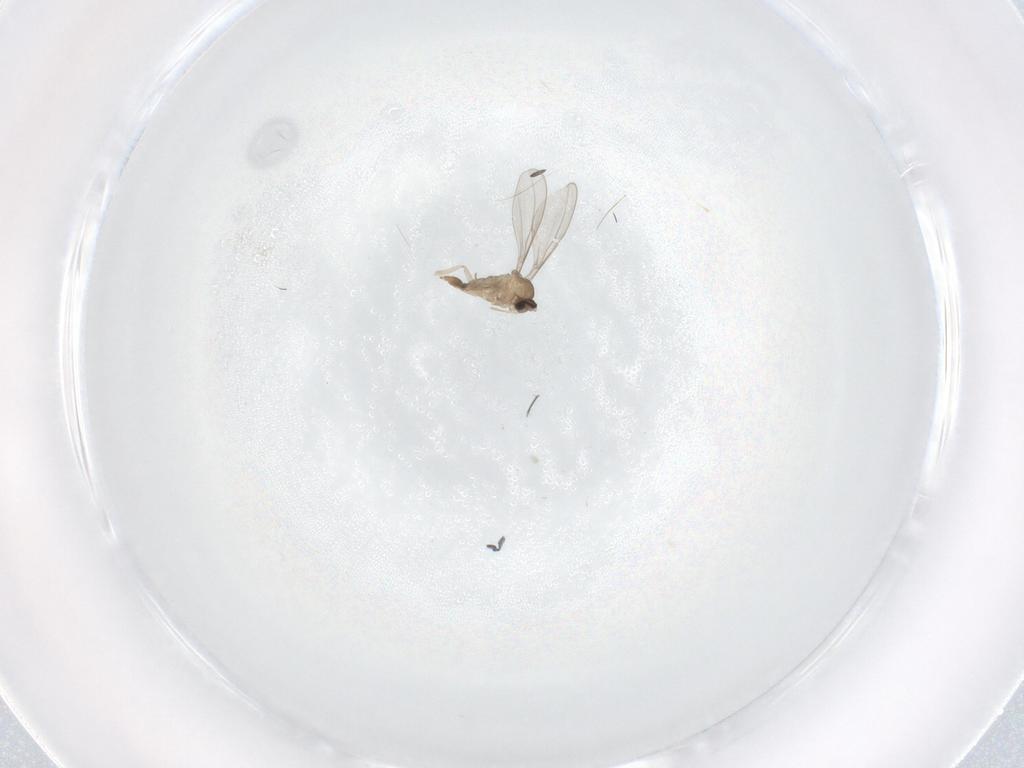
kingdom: Animalia
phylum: Arthropoda
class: Insecta
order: Diptera
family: Cecidomyiidae
